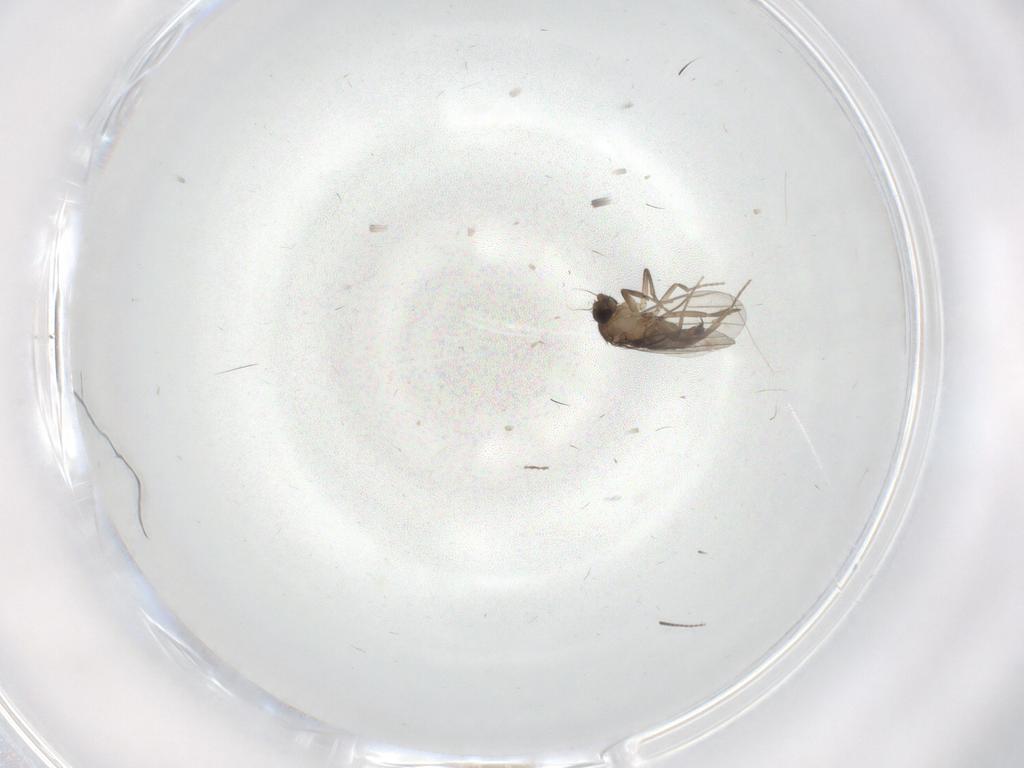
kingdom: Animalia
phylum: Arthropoda
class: Insecta
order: Diptera
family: Phoridae
